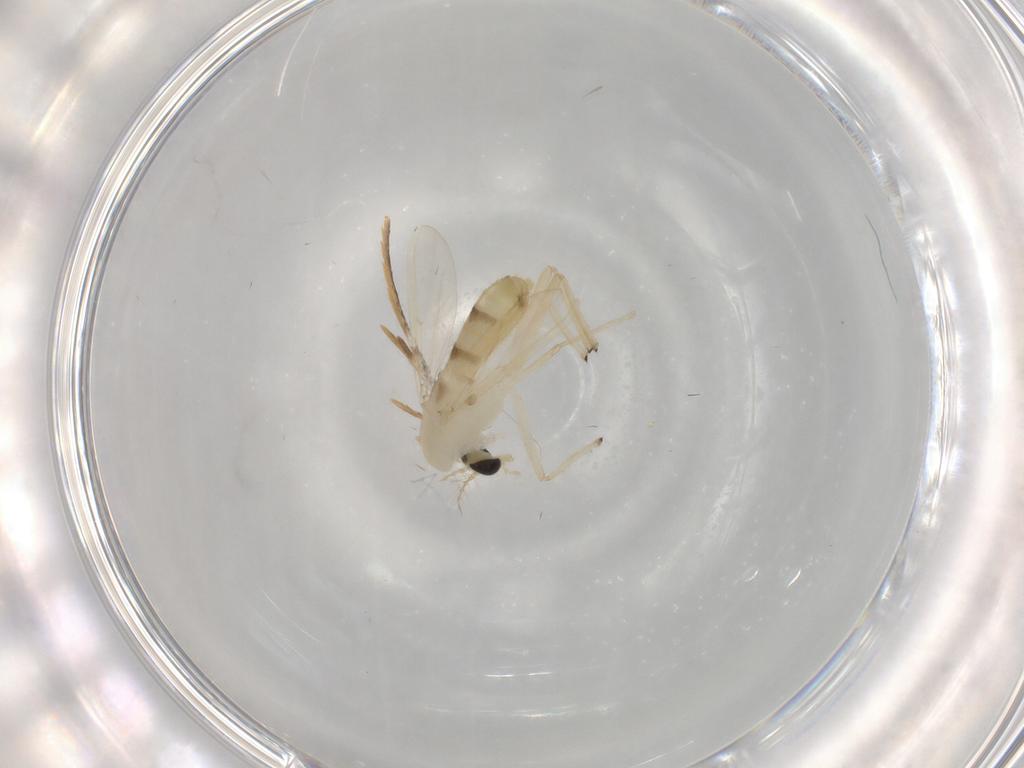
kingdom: Animalia
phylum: Arthropoda
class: Insecta
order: Diptera
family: Chironomidae
